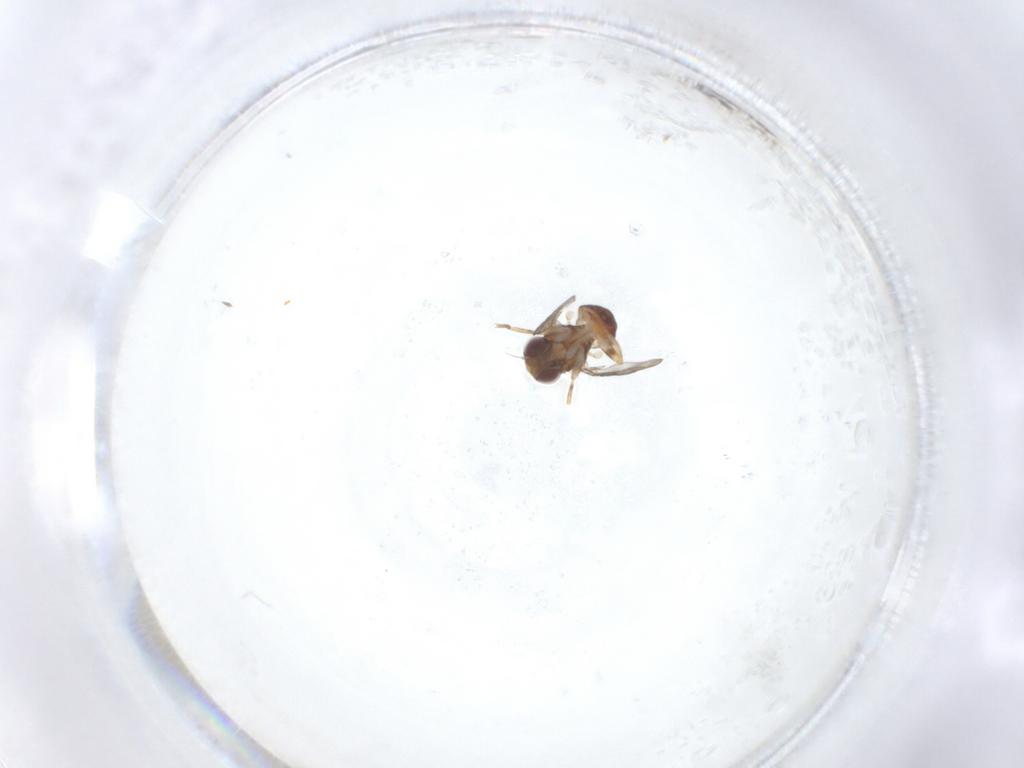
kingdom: Animalia
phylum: Arthropoda
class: Insecta
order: Diptera
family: Chloropidae
